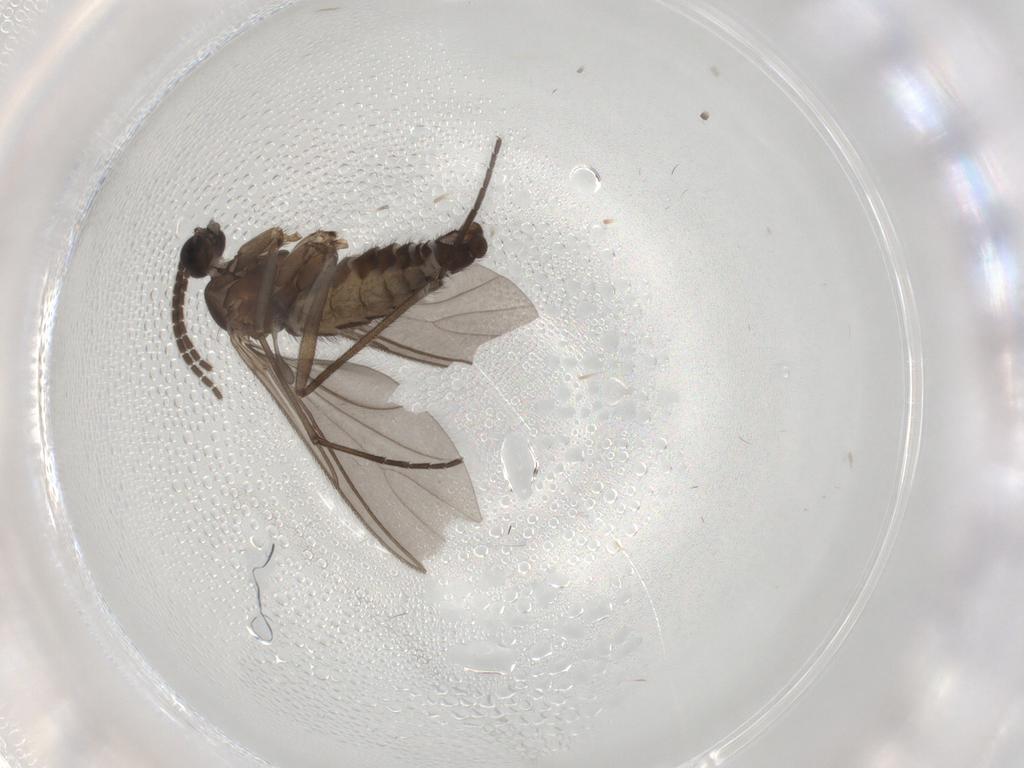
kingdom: Animalia
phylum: Arthropoda
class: Insecta
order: Diptera
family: Sciaridae
